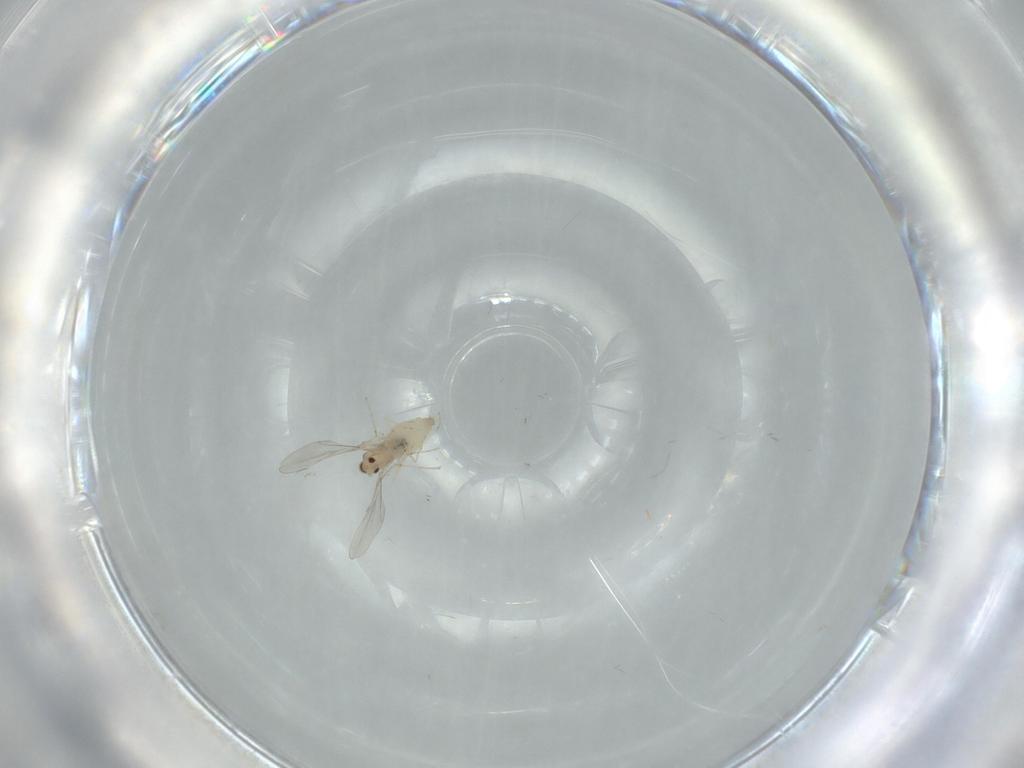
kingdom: Animalia
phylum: Arthropoda
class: Insecta
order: Diptera
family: Cecidomyiidae
